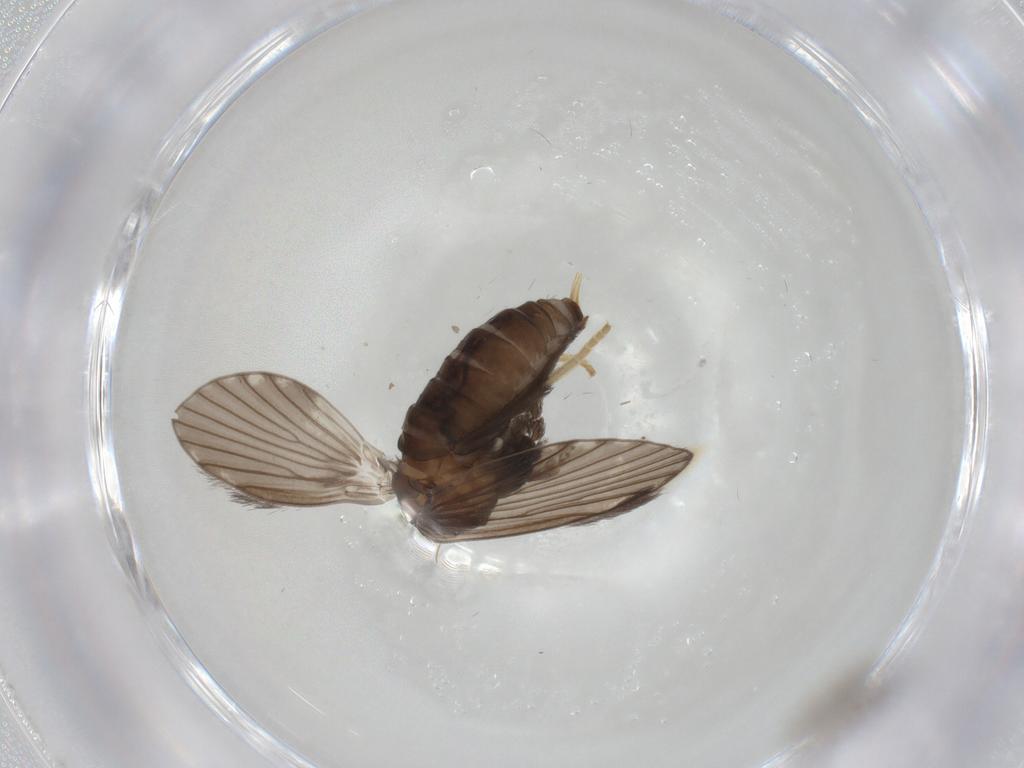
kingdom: Animalia
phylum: Arthropoda
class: Insecta
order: Diptera
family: Psychodidae
